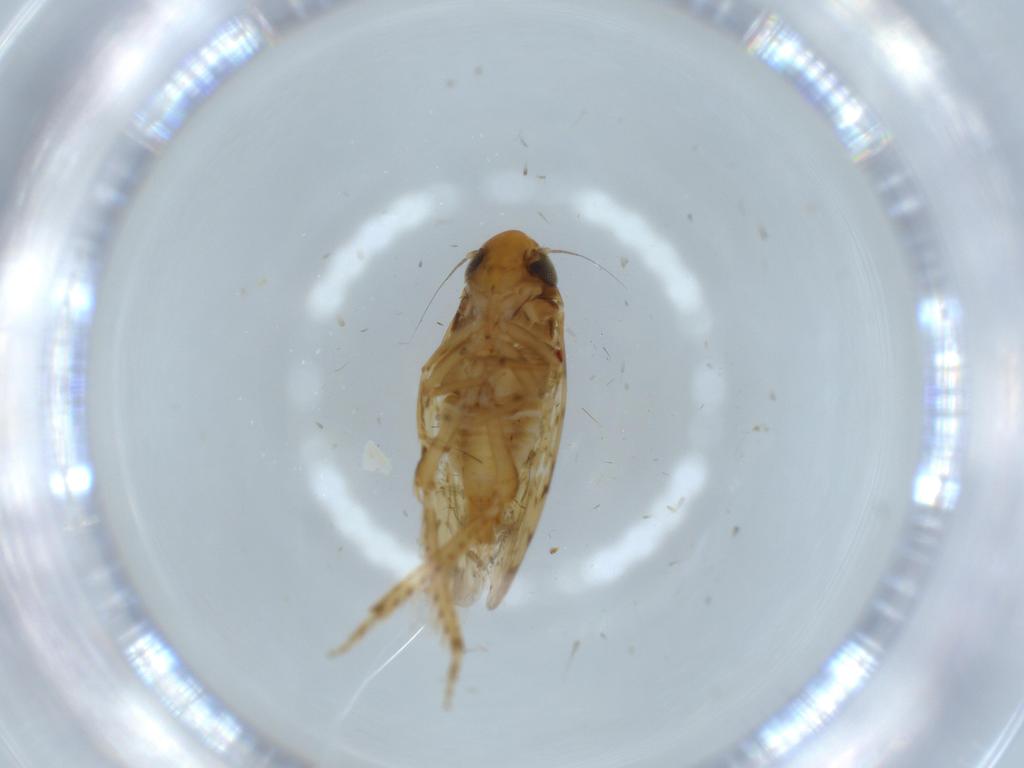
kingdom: Animalia
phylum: Arthropoda
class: Insecta
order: Hemiptera
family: Cicadellidae
